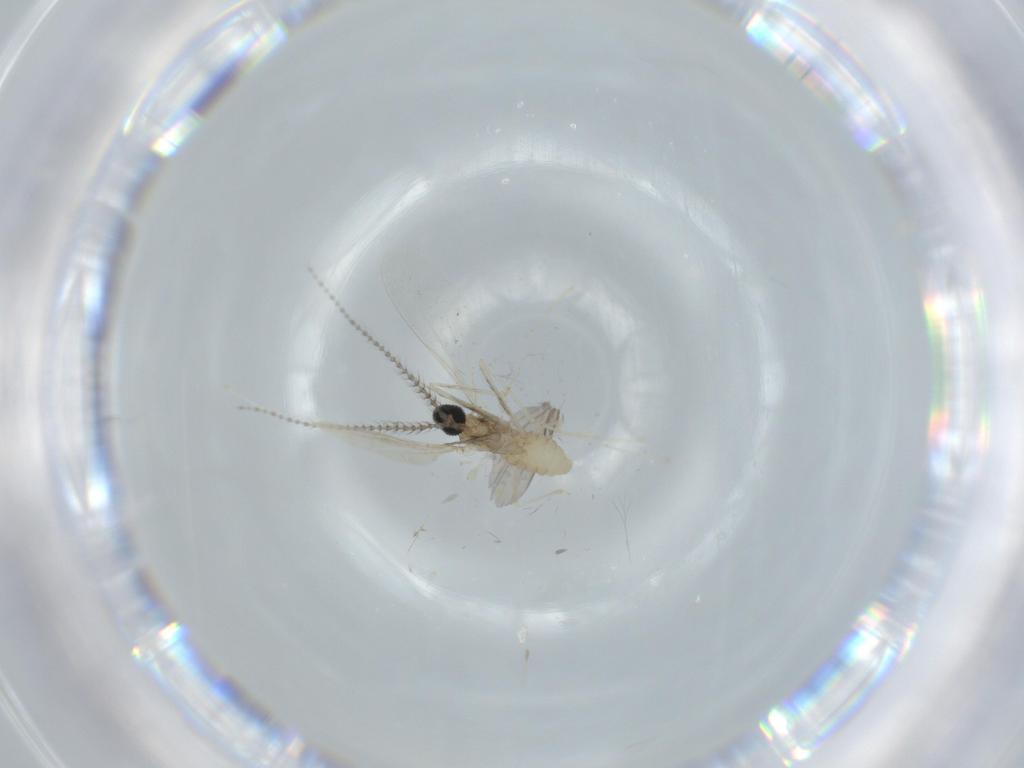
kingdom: Animalia
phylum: Arthropoda
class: Insecta
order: Diptera
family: Cecidomyiidae
